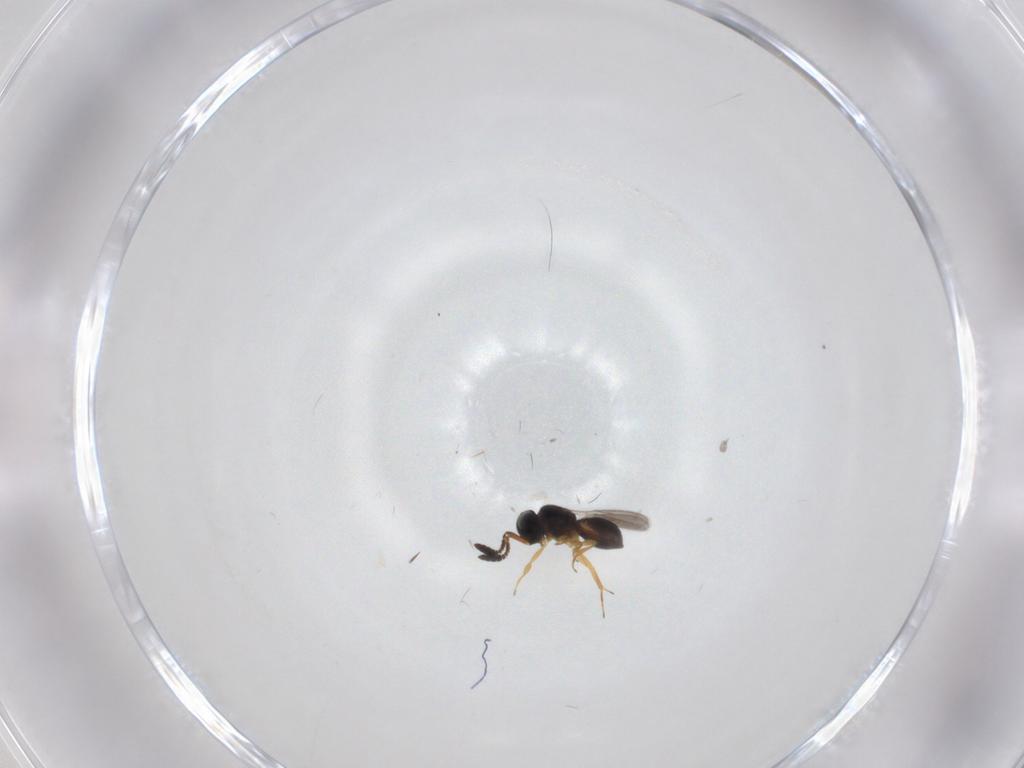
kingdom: Animalia
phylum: Arthropoda
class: Insecta
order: Hymenoptera
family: Scelionidae
